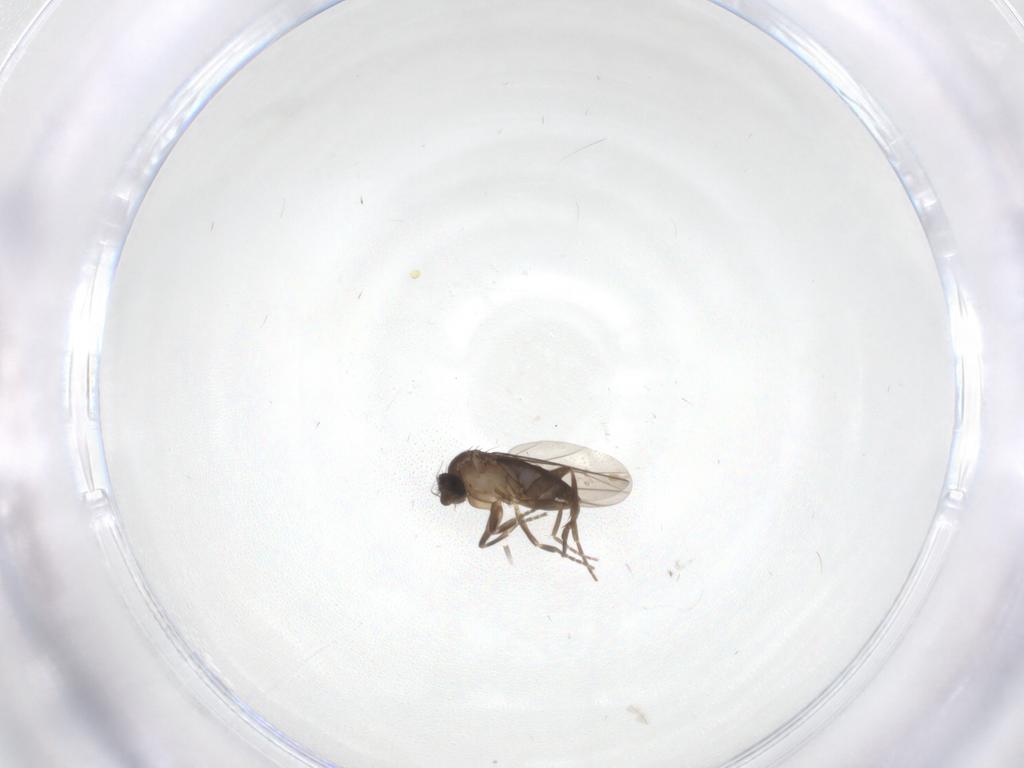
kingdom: Animalia
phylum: Arthropoda
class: Insecta
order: Diptera
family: Chironomidae
